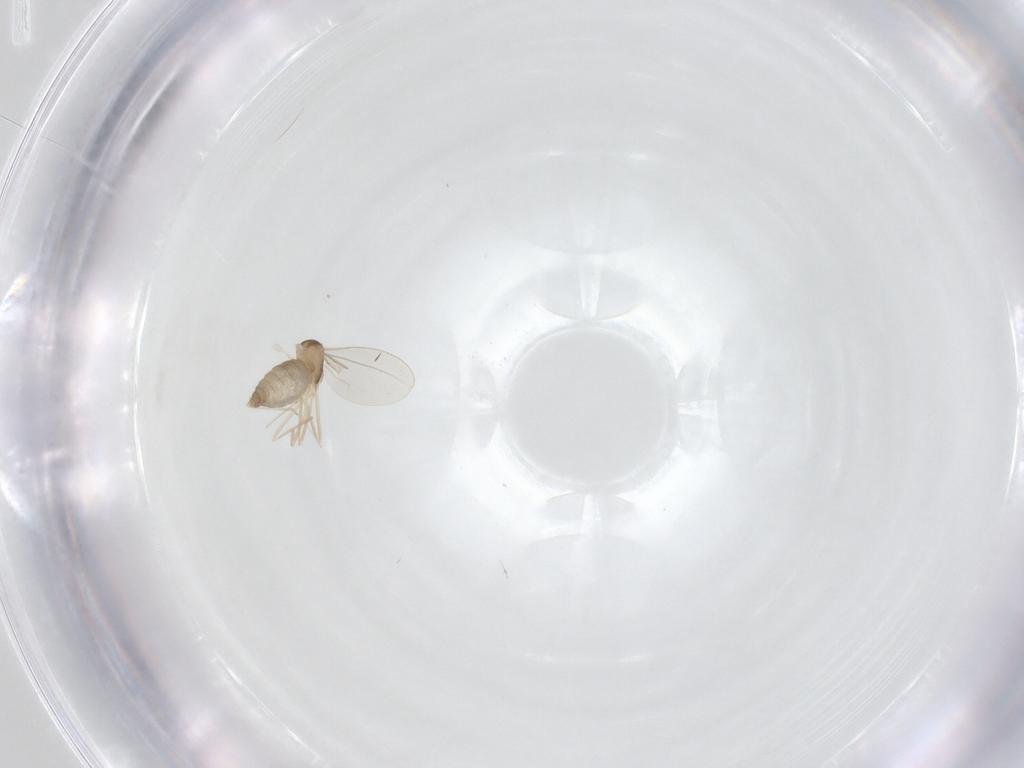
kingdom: Animalia
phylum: Arthropoda
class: Insecta
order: Diptera
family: Cecidomyiidae
